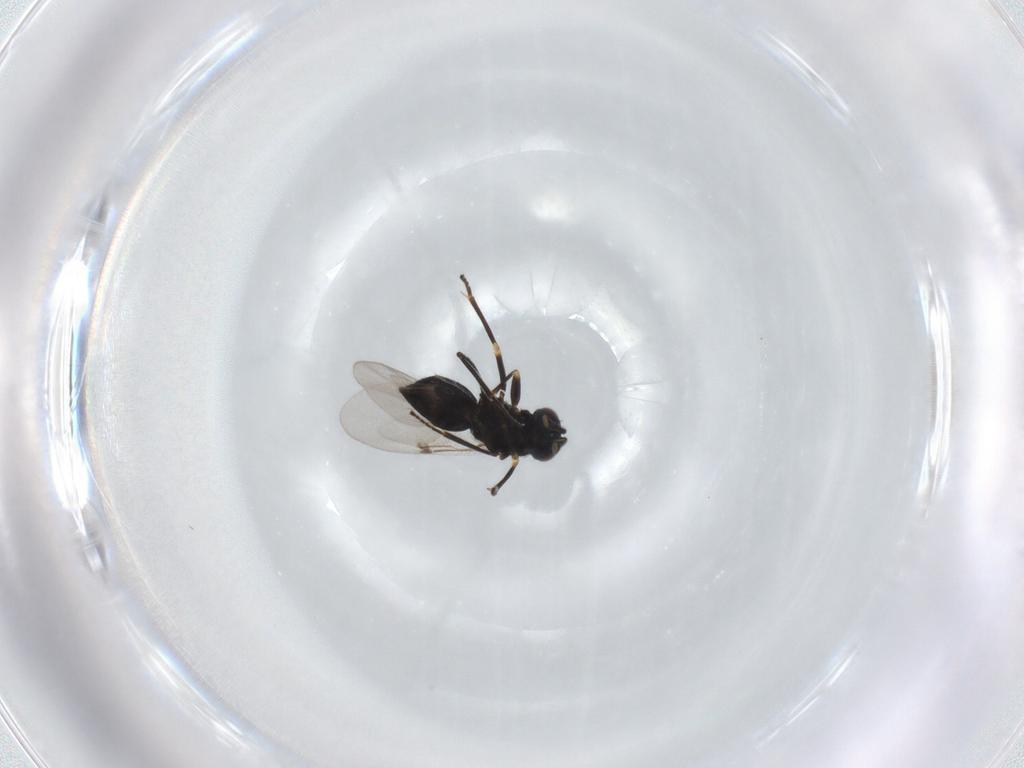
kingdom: Animalia
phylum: Arthropoda
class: Insecta
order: Hymenoptera
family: Encyrtidae
